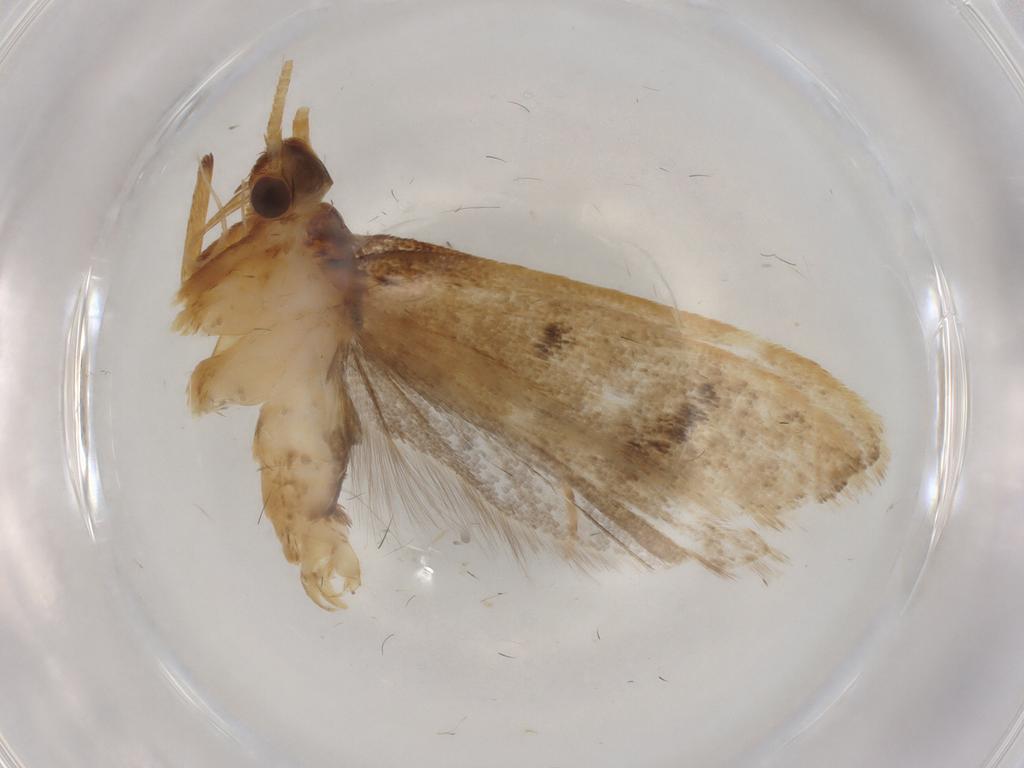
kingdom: Animalia
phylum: Arthropoda
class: Insecta
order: Lepidoptera
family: Lecithoceridae
